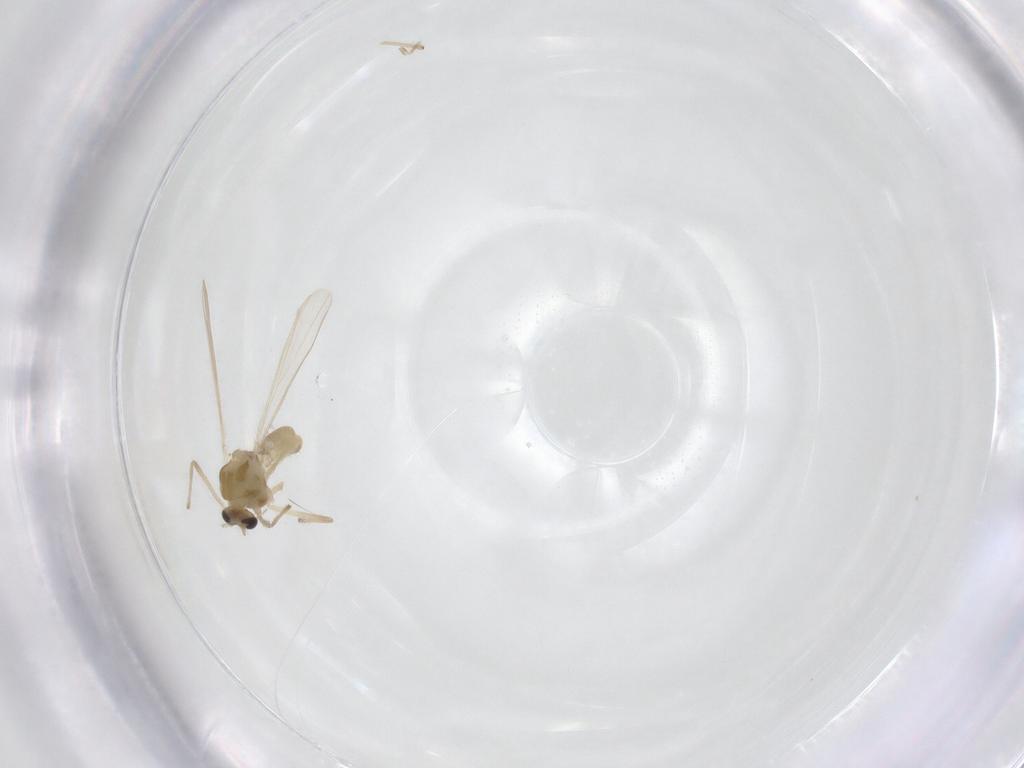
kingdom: Animalia
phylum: Arthropoda
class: Insecta
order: Diptera
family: Chironomidae
